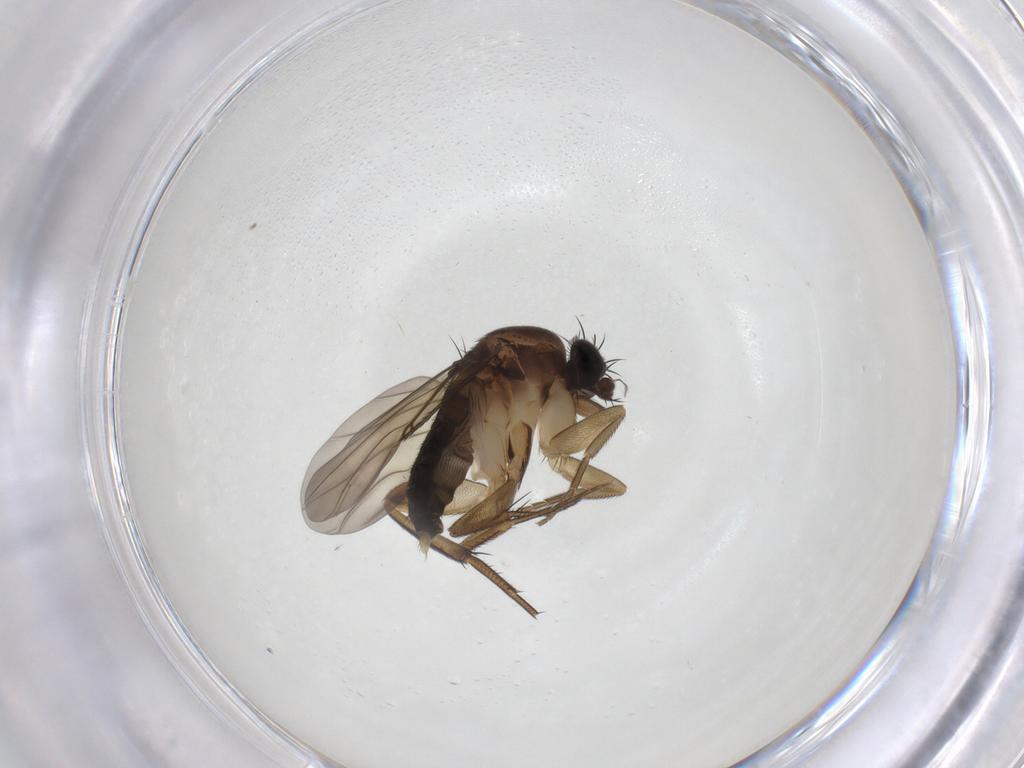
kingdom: Animalia
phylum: Arthropoda
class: Insecta
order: Diptera
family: Phoridae
